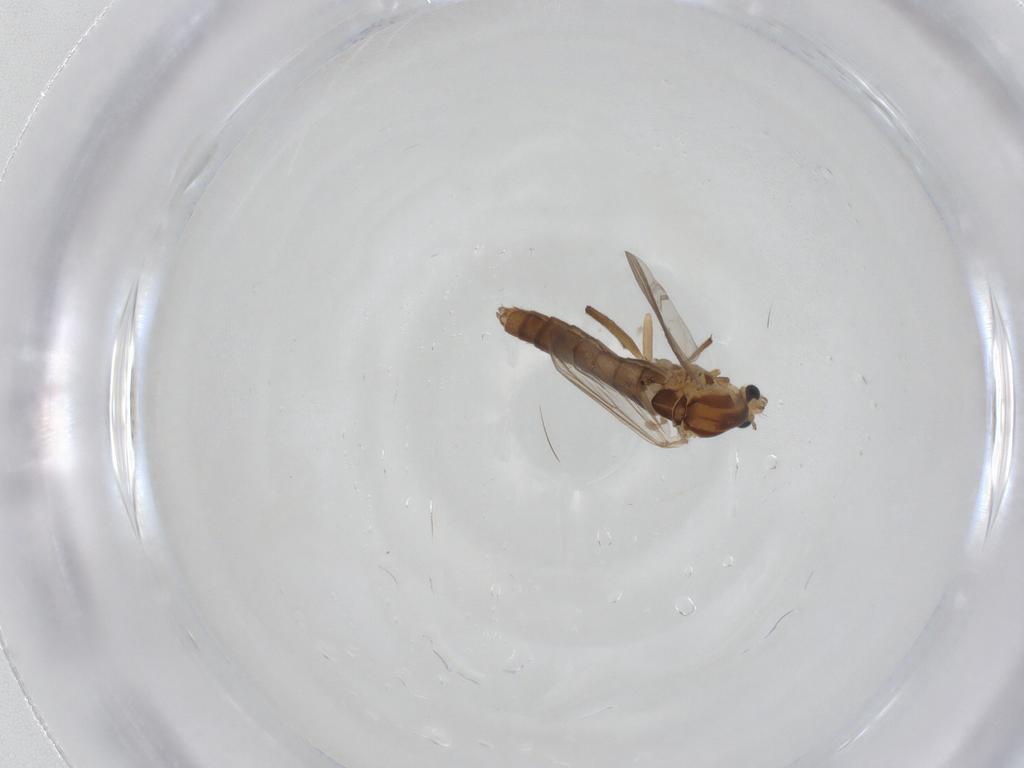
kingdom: Animalia
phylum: Arthropoda
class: Insecta
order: Diptera
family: Chironomidae
